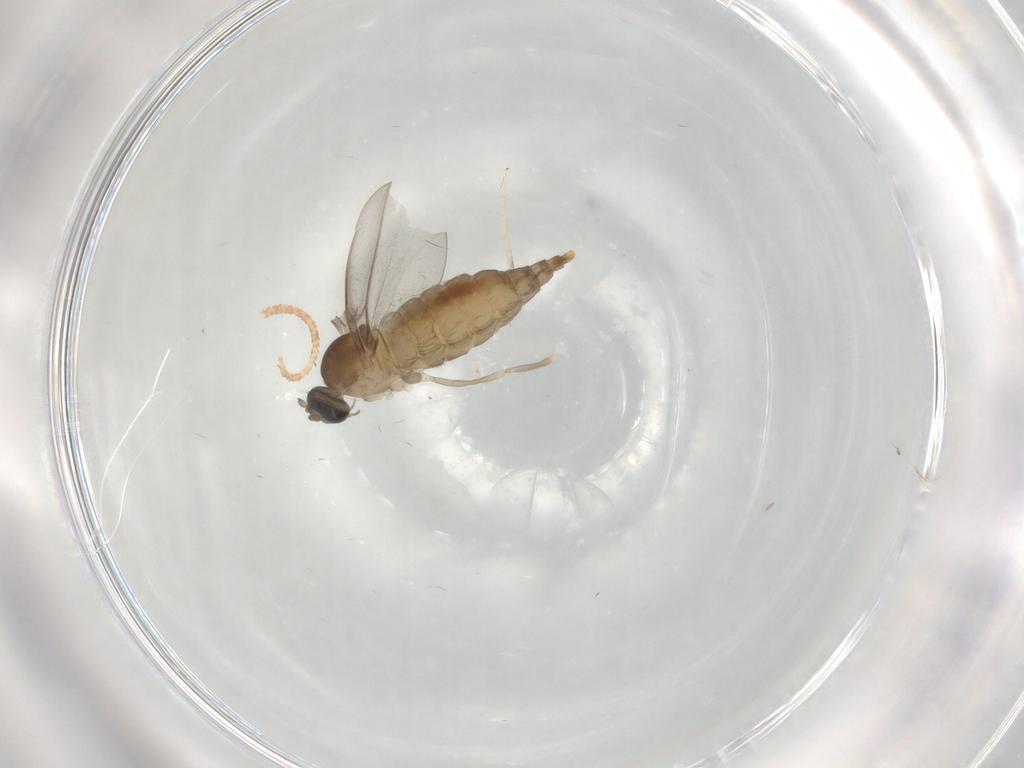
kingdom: Animalia
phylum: Arthropoda
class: Insecta
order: Diptera
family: Cecidomyiidae
